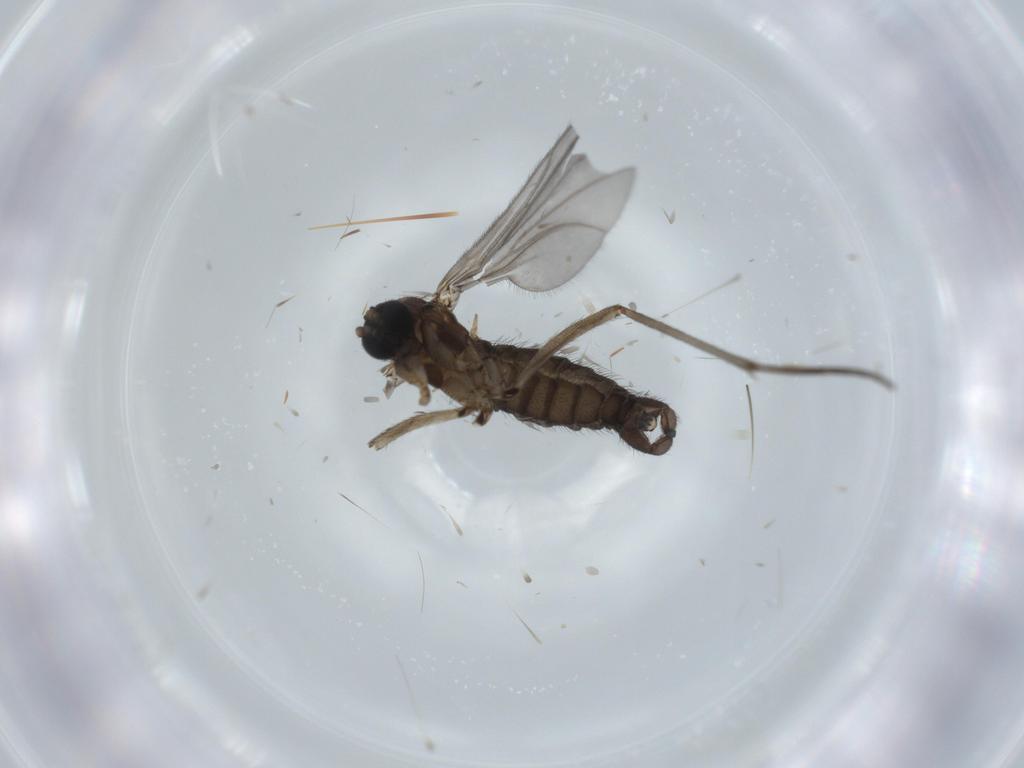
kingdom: Animalia
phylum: Arthropoda
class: Insecta
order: Diptera
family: Sciaridae
